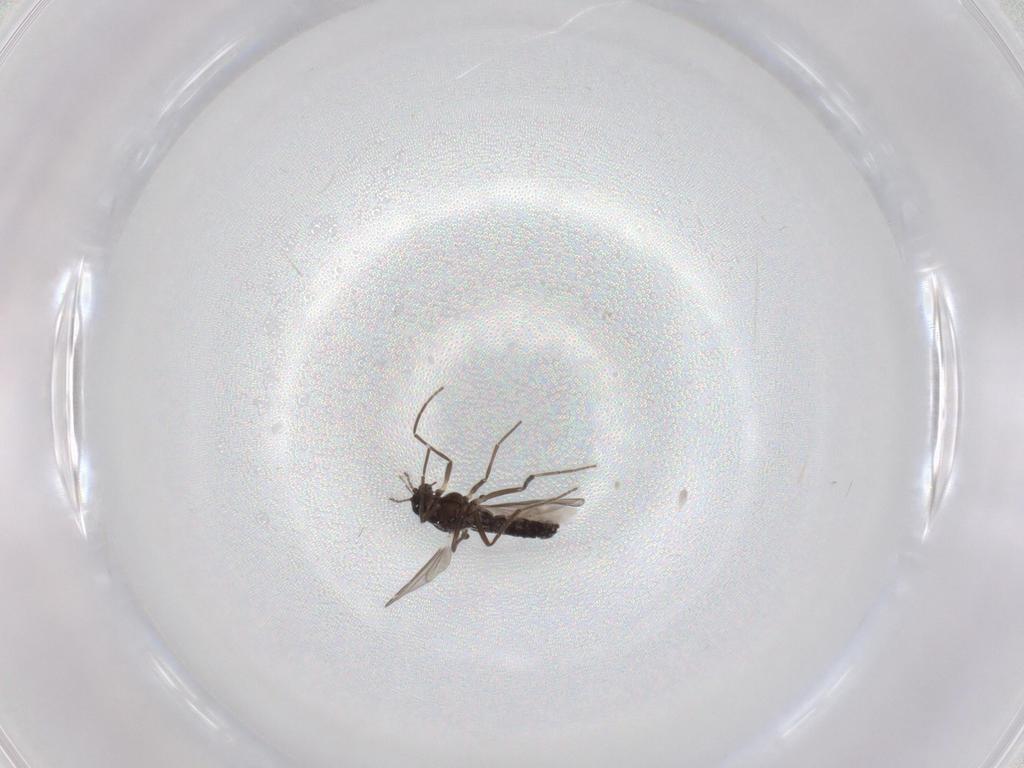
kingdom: Animalia
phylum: Arthropoda
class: Insecta
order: Diptera
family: Chironomidae
